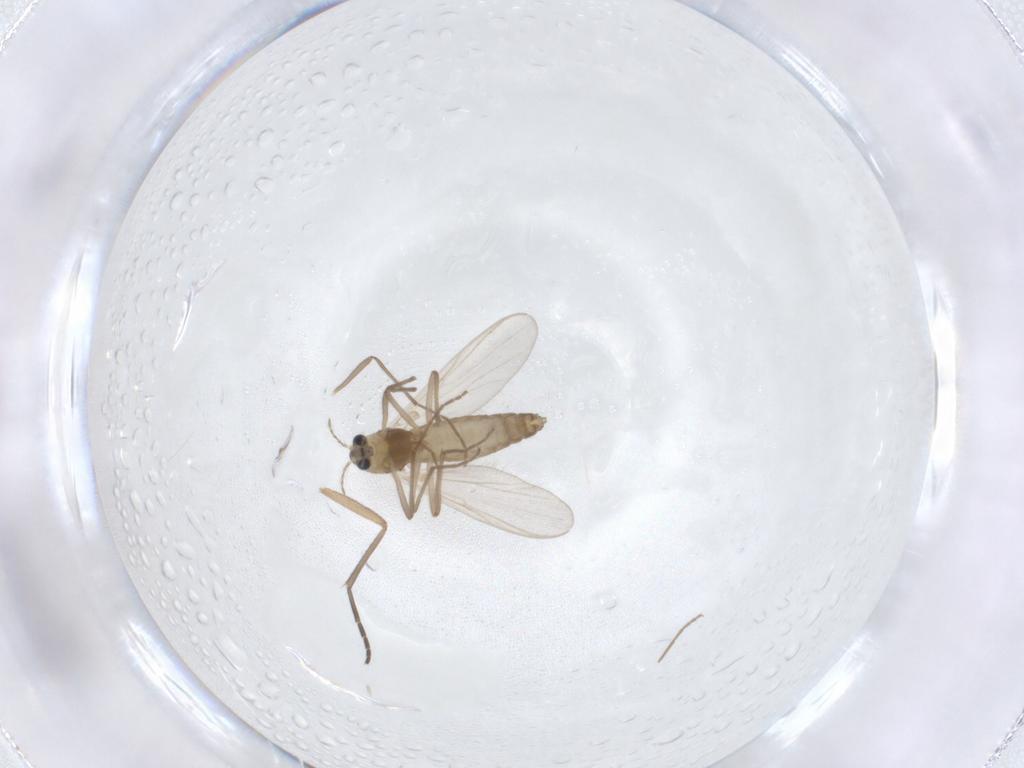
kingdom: Animalia
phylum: Arthropoda
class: Insecta
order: Diptera
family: Chironomidae
